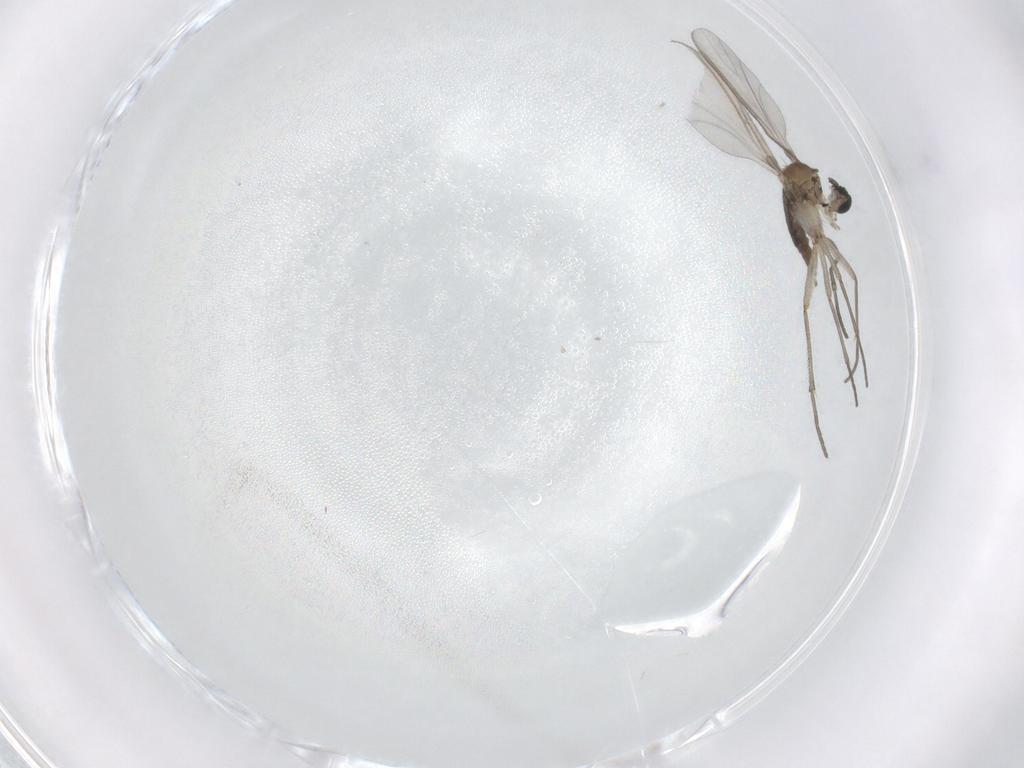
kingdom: Animalia
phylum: Arthropoda
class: Insecta
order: Diptera
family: Sciaridae
